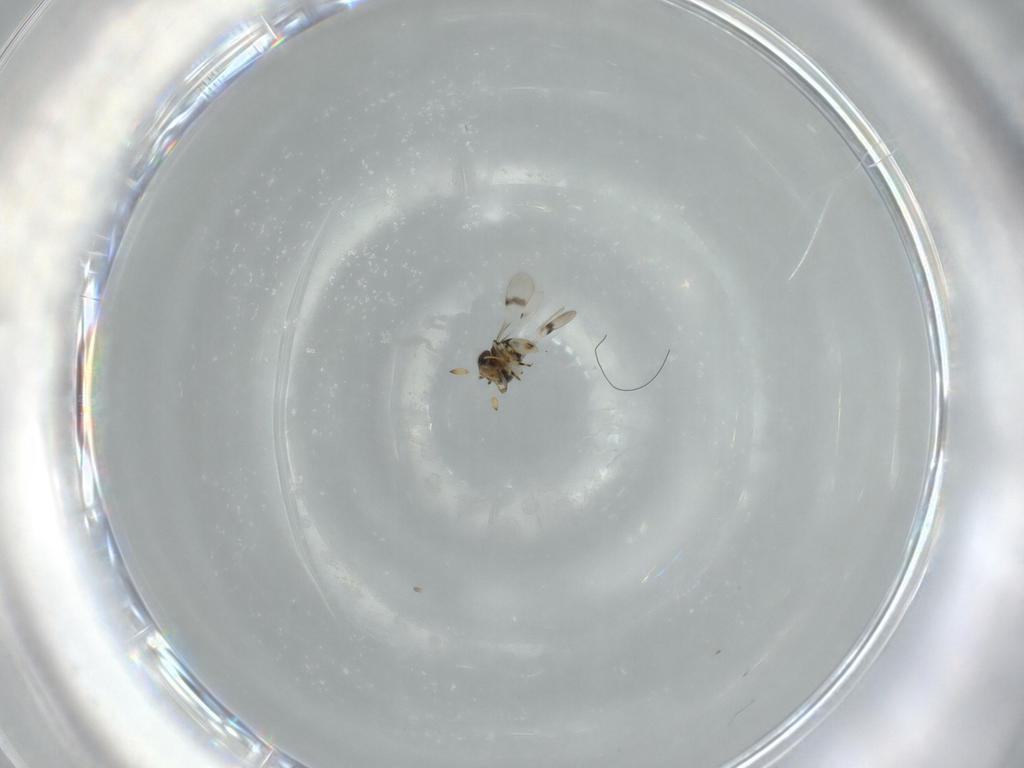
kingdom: Animalia
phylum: Arthropoda
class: Insecta
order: Hymenoptera
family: Scelionidae
